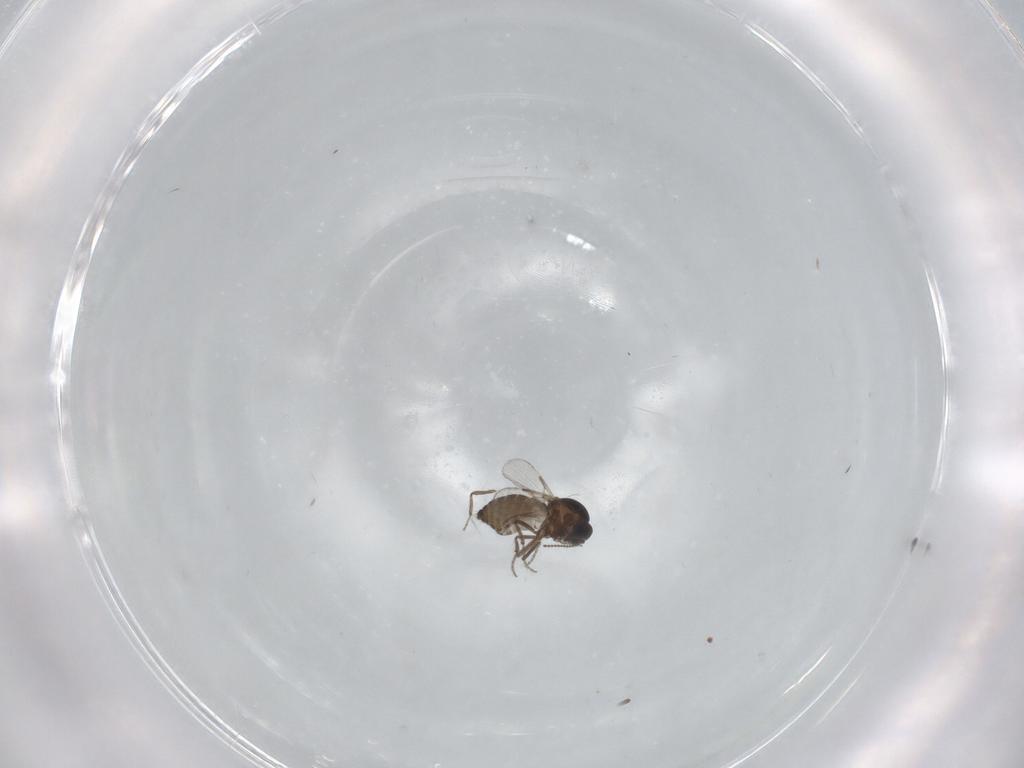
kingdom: Animalia
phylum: Arthropoda
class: Insecta
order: Diptera
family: Ceratopogonidae
